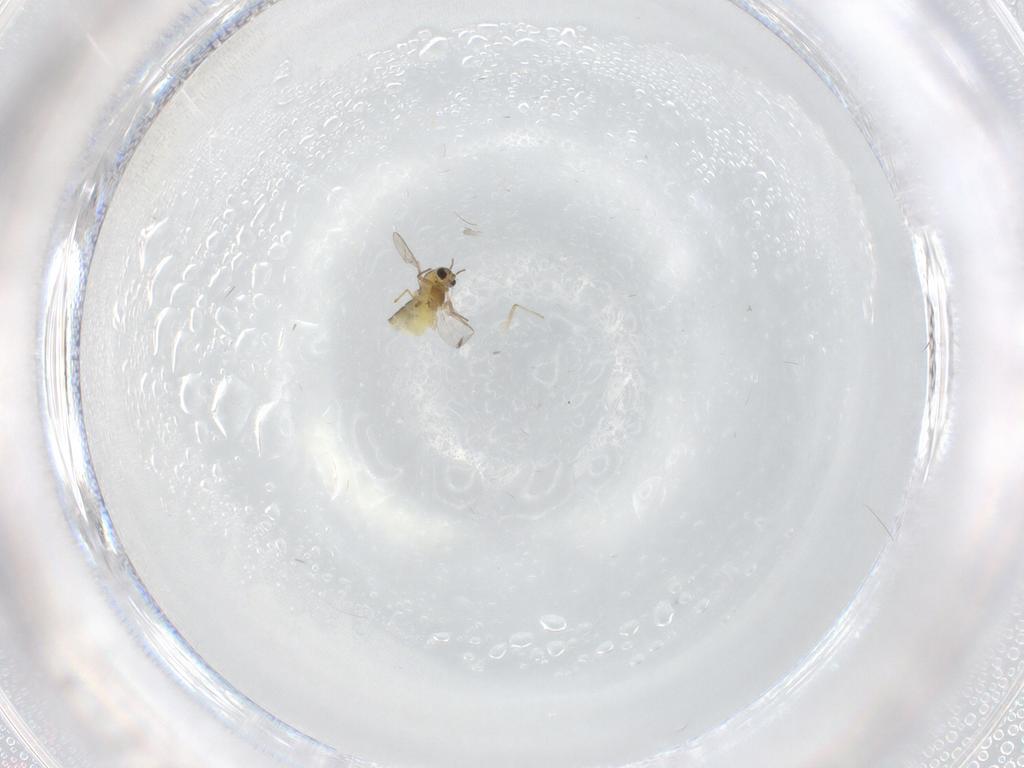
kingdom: Animalia
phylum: Arthropoda
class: Insecta
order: Diptera
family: Chironomidae
